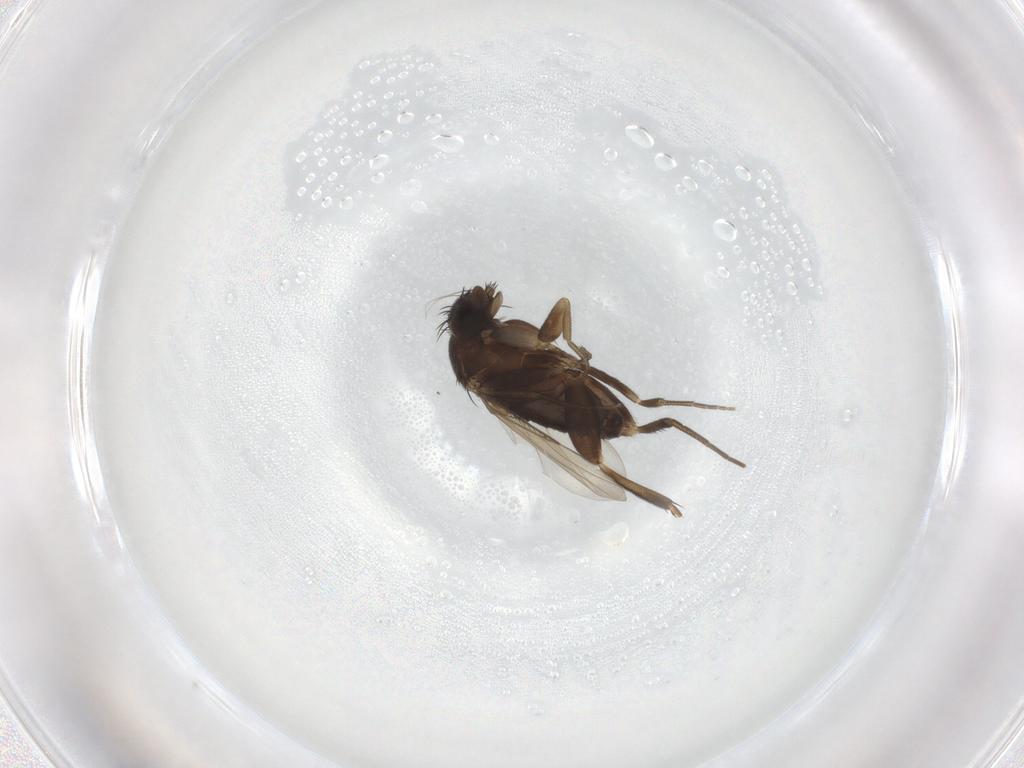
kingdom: Animalia
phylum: Arthropoda
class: Insecta
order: Diptera
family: Phoridae
